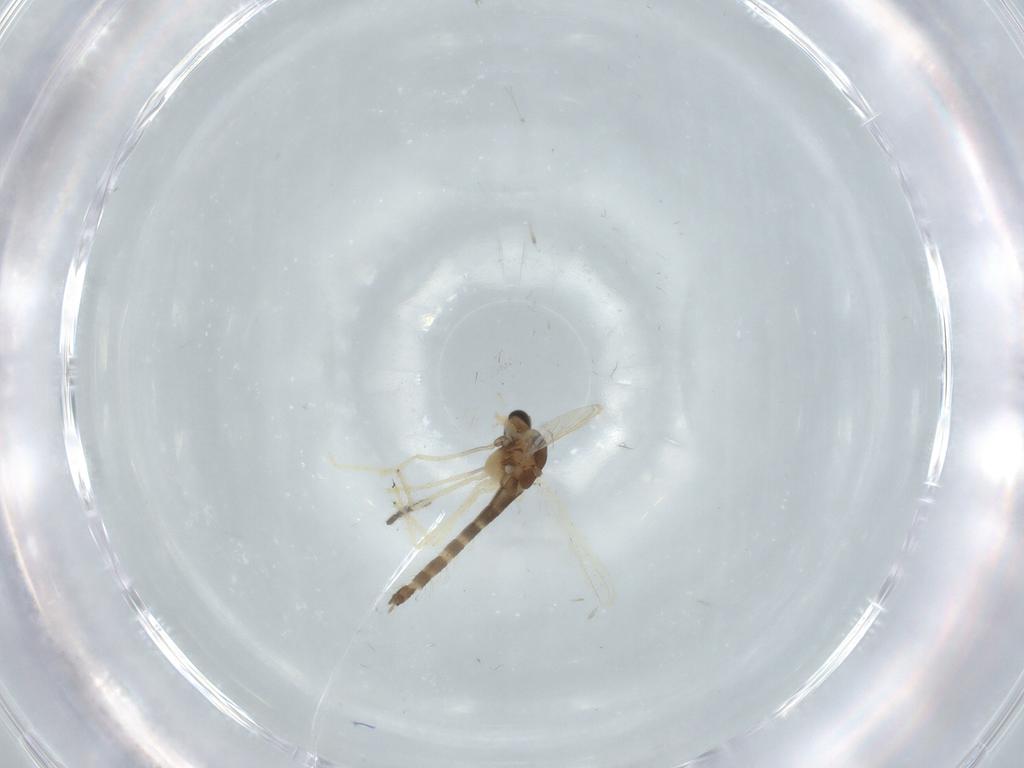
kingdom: Animalia
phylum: Arthropoda
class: Insecta
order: Diptera
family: Chironomidae
